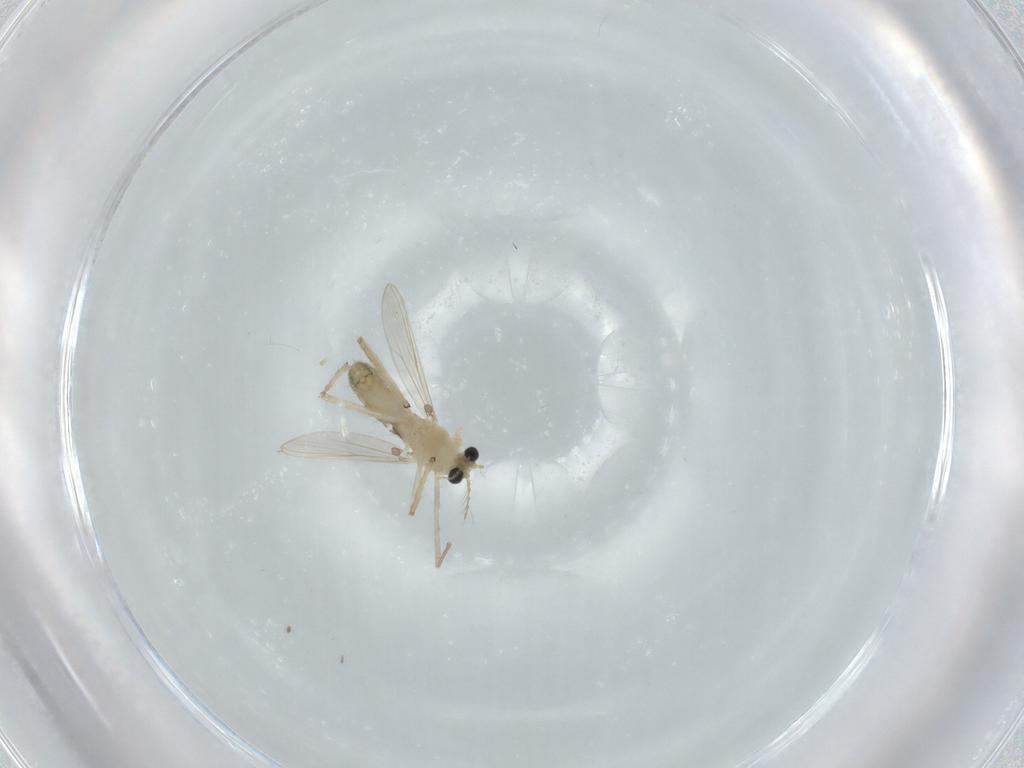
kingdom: Animalia
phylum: Arthropoda
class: Insecta
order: Diptera
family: Chironomidae
